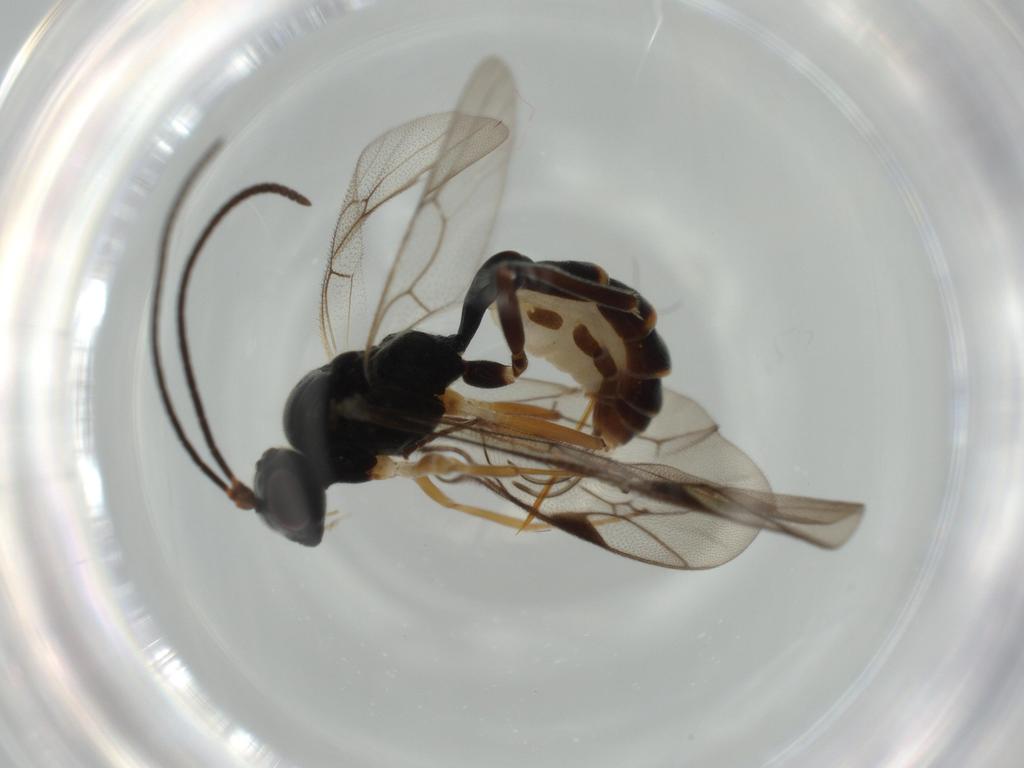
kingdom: Animalia
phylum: Arthropoda
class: Insecta
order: Hymenoptera
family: Ichneumonidae
